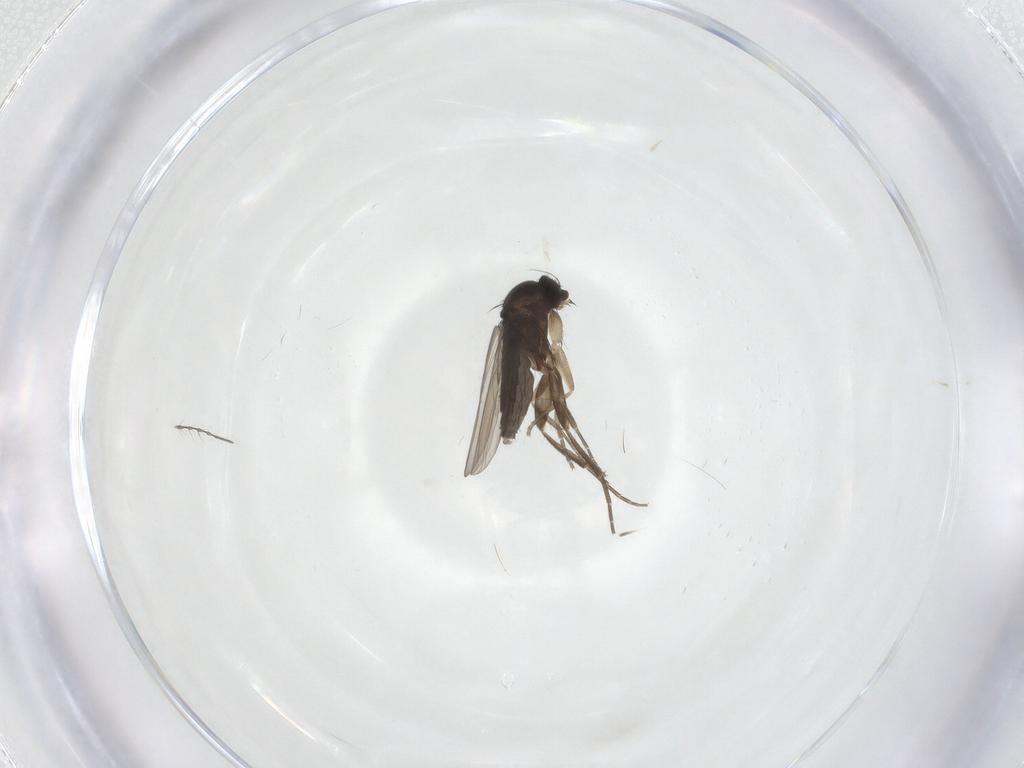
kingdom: Animalia
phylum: Arthropoda
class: Insecta
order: Diptera
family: Phoridae
